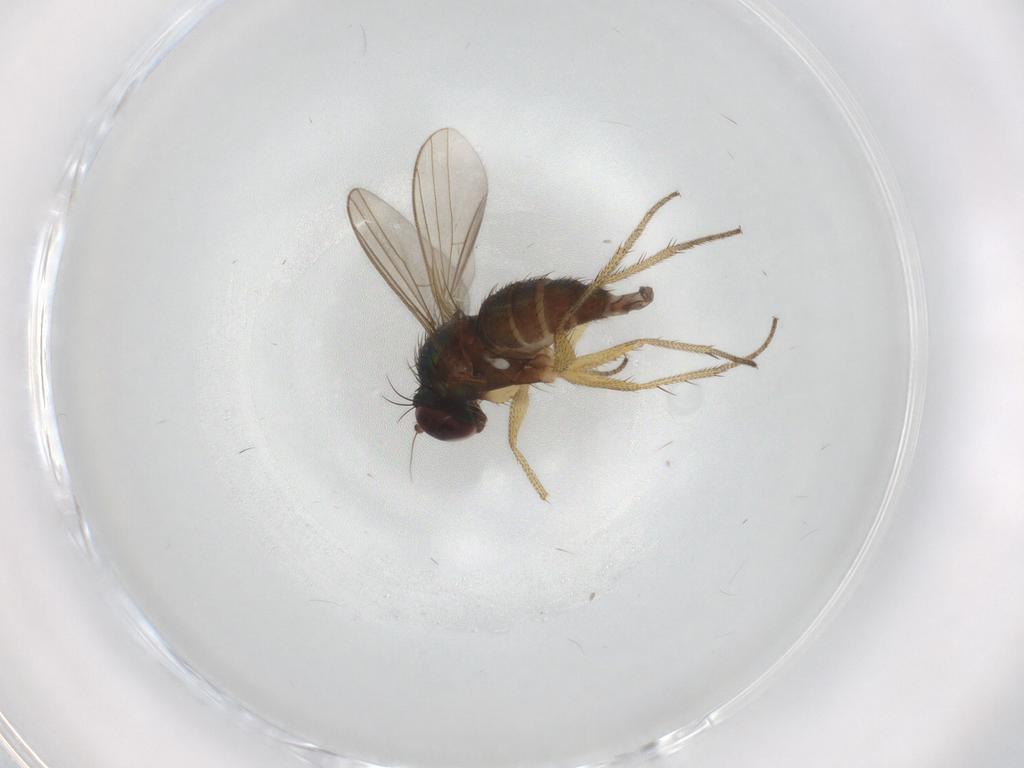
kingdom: Animalia
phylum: Arthropoda
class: Insecta
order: Diptera
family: Dolichopodidae
